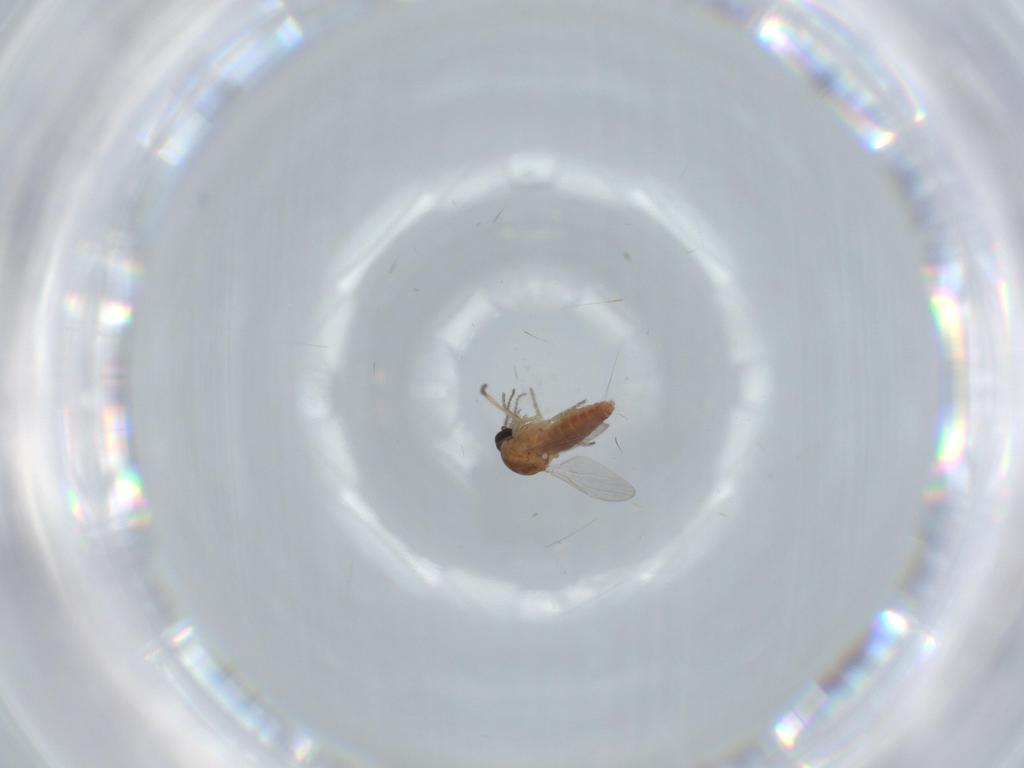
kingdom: Animalia
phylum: Arthropoda
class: Insecta
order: Diptera
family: Ceratopogonidae
